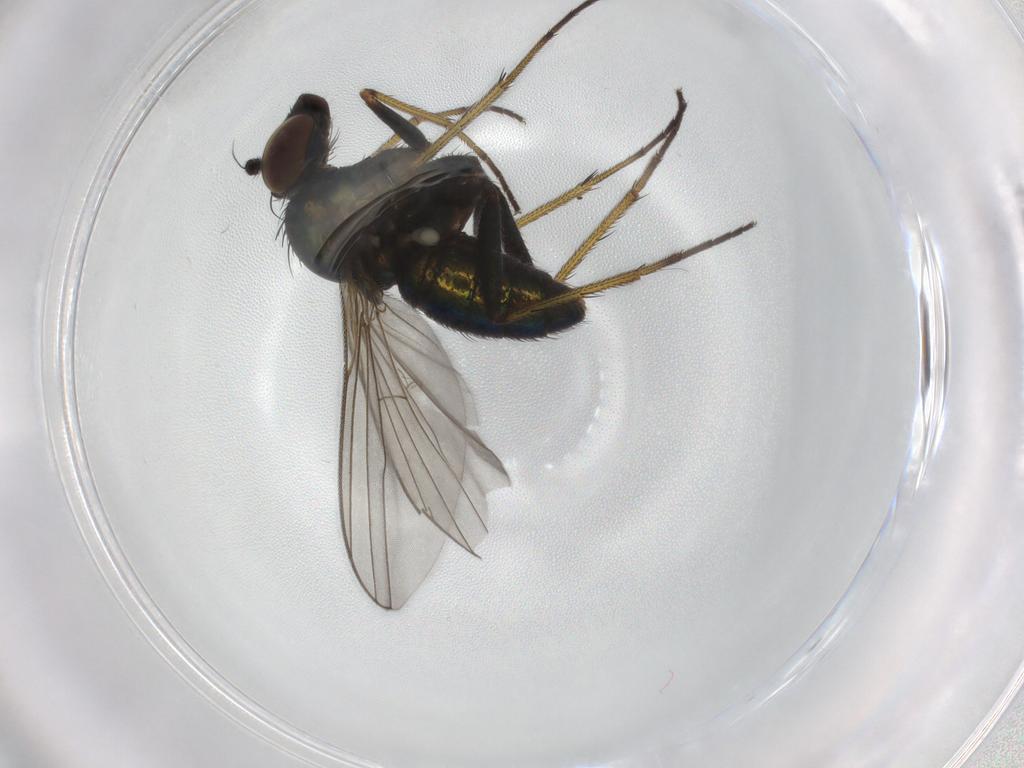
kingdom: Animalia
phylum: Arthropoda
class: Insecta
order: Diptera
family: Dolichopodidae
